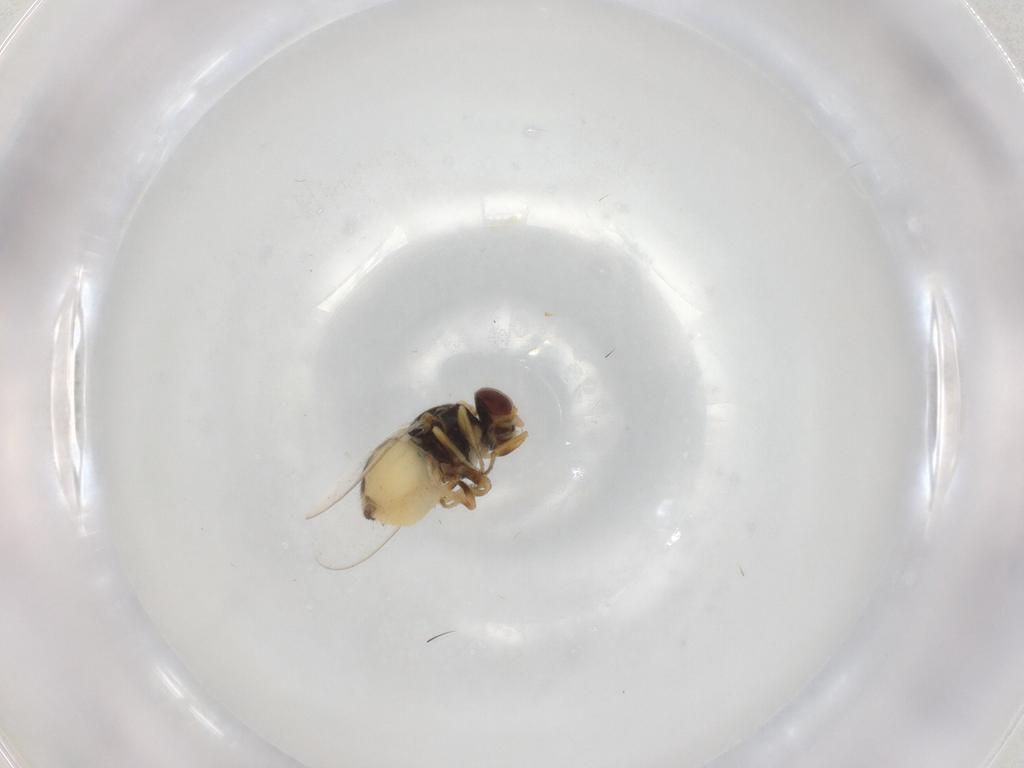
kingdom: Animalia
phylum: Arthropoda
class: Insecta
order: Diptera
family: Chloropidae
